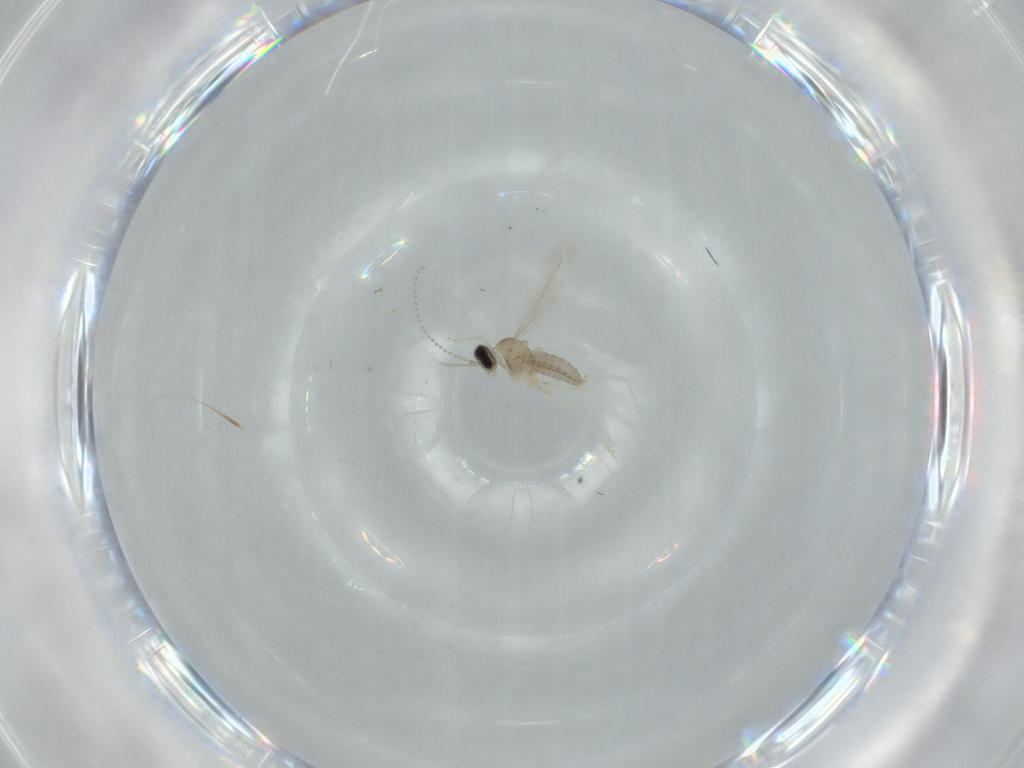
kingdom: Animalia
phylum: Arthropoda
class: Insecta
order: Diptera
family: Cecidomyiidae
